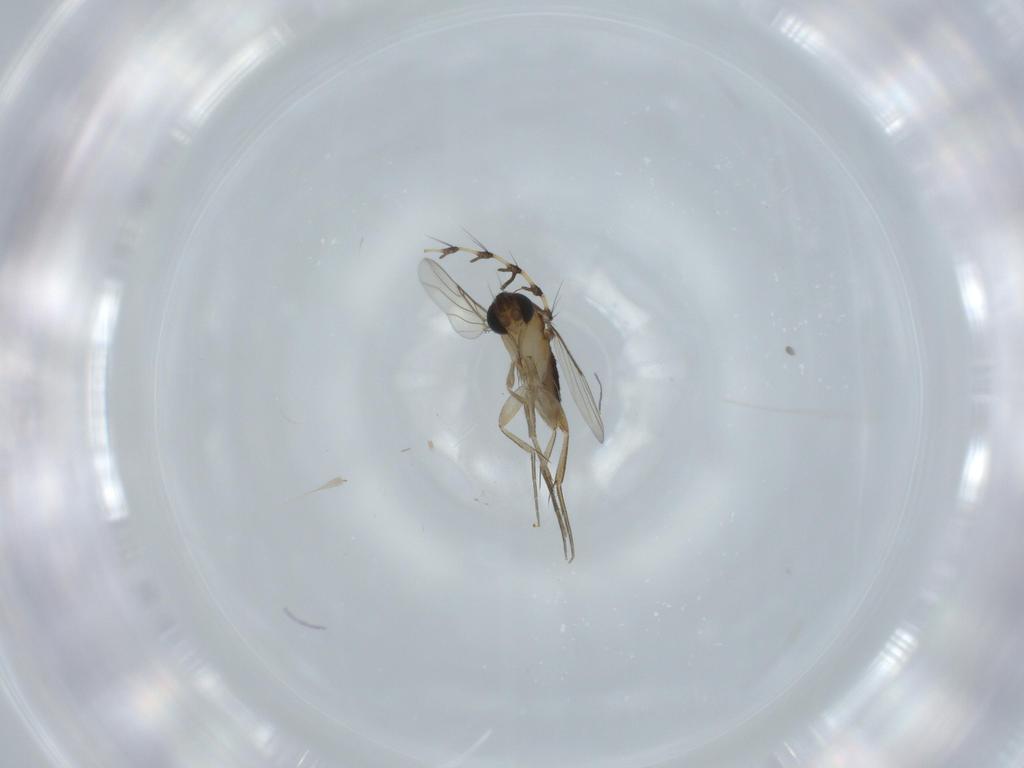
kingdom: Animalia
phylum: Arthropoda
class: Insecta
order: Diptera
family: Phoridae
